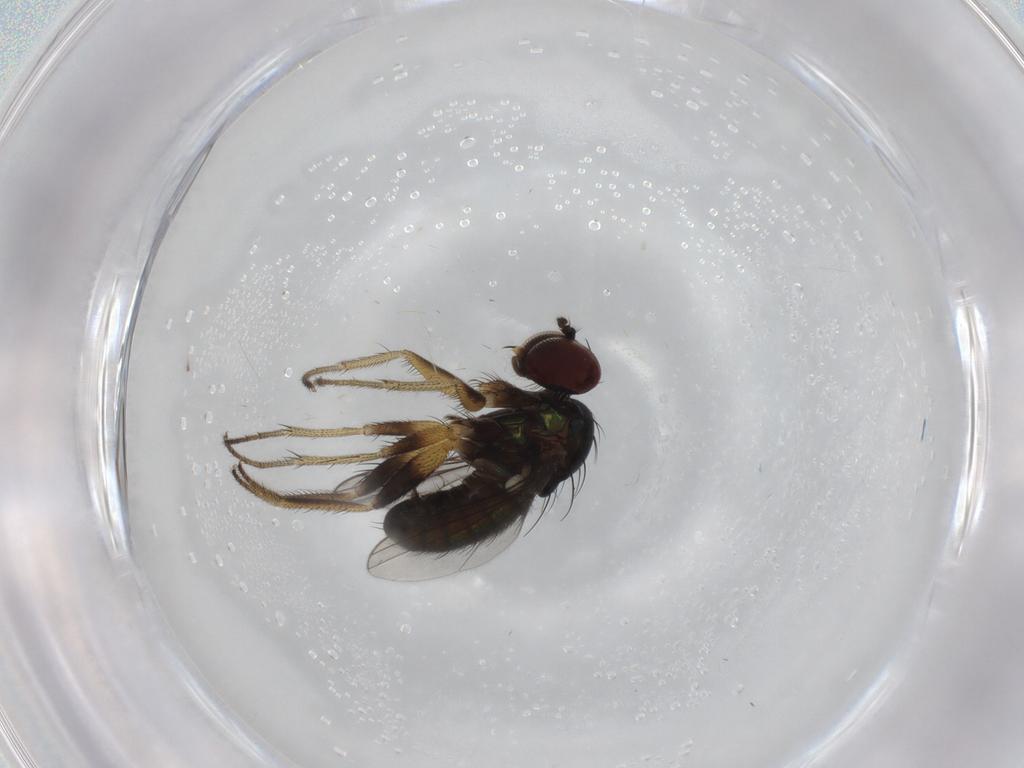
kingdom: Animalia
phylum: Arthropoda
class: Insecta
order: Diptera
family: Dolichopodidae
